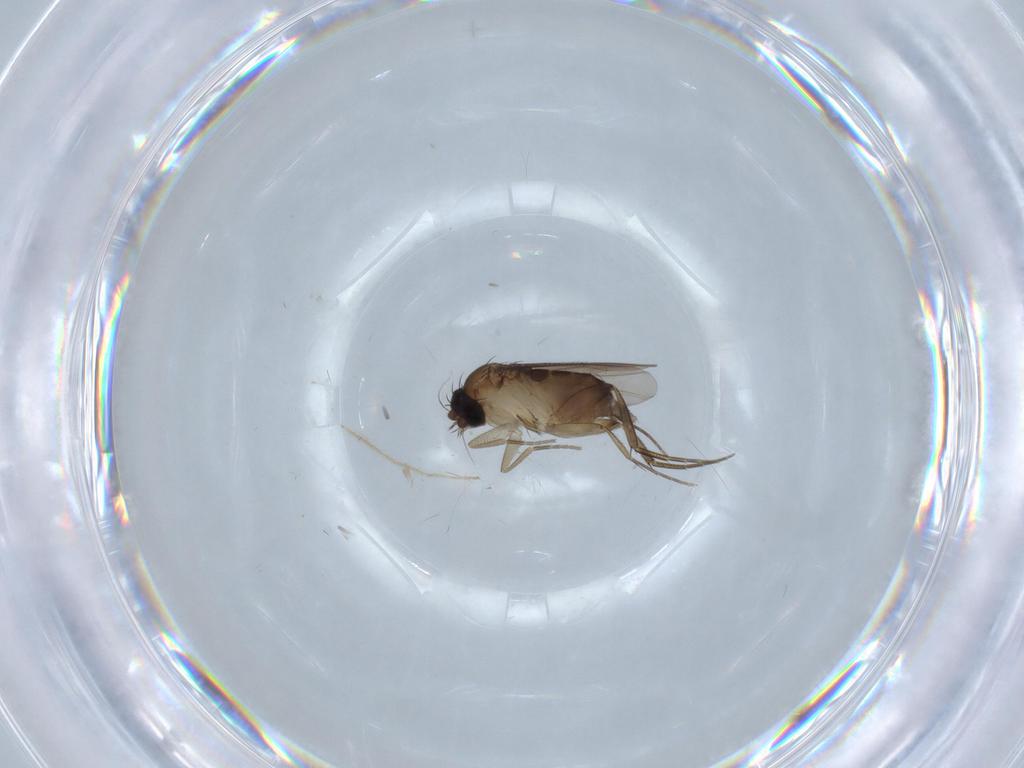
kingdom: Animalia
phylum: Arthropoda
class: Insecta
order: Diptera
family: Phoridae
